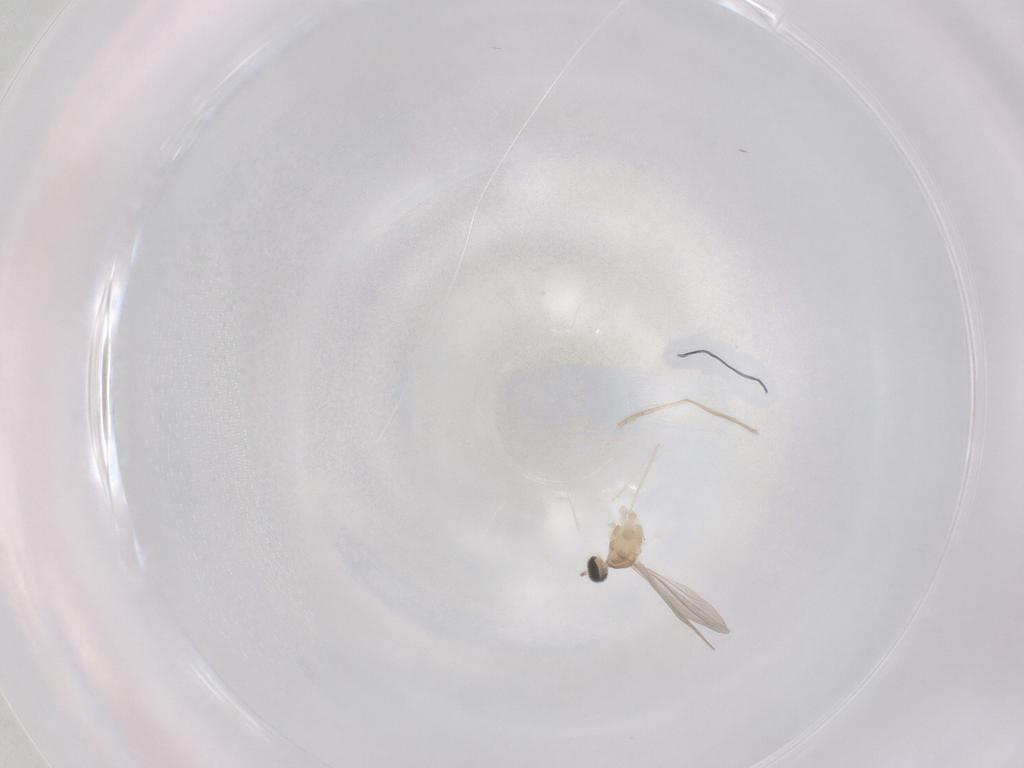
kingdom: Animalia
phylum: Arthropoda
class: Insecta
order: Diptera
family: Cecidomyiidae
